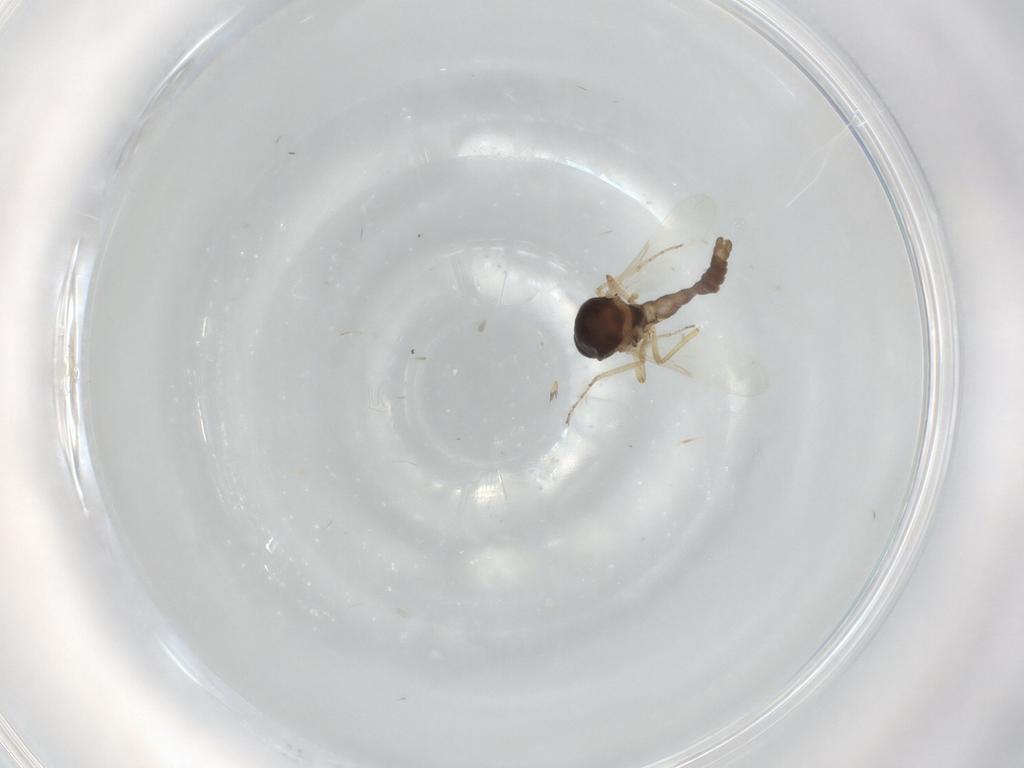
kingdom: Animalia
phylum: Arthropoda
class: Insecta
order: Diptera
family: Ceratopogonidae
